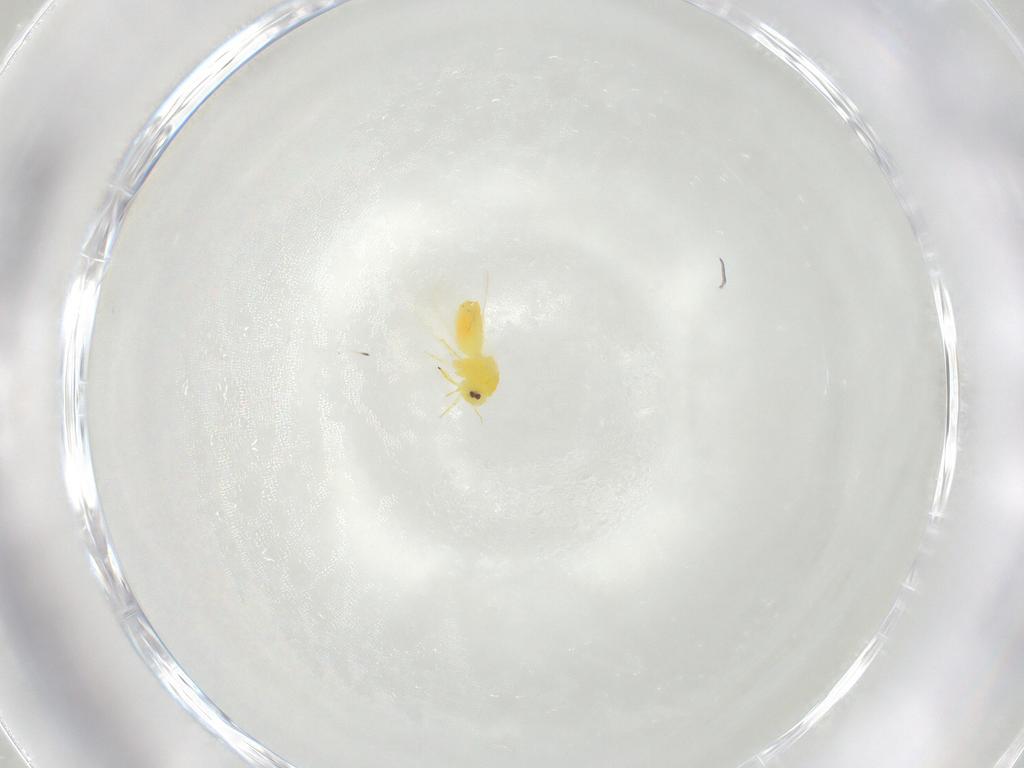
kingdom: Animalia
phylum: Arthropoda
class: Insecta
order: Hemiptera
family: Aleyrodidae
